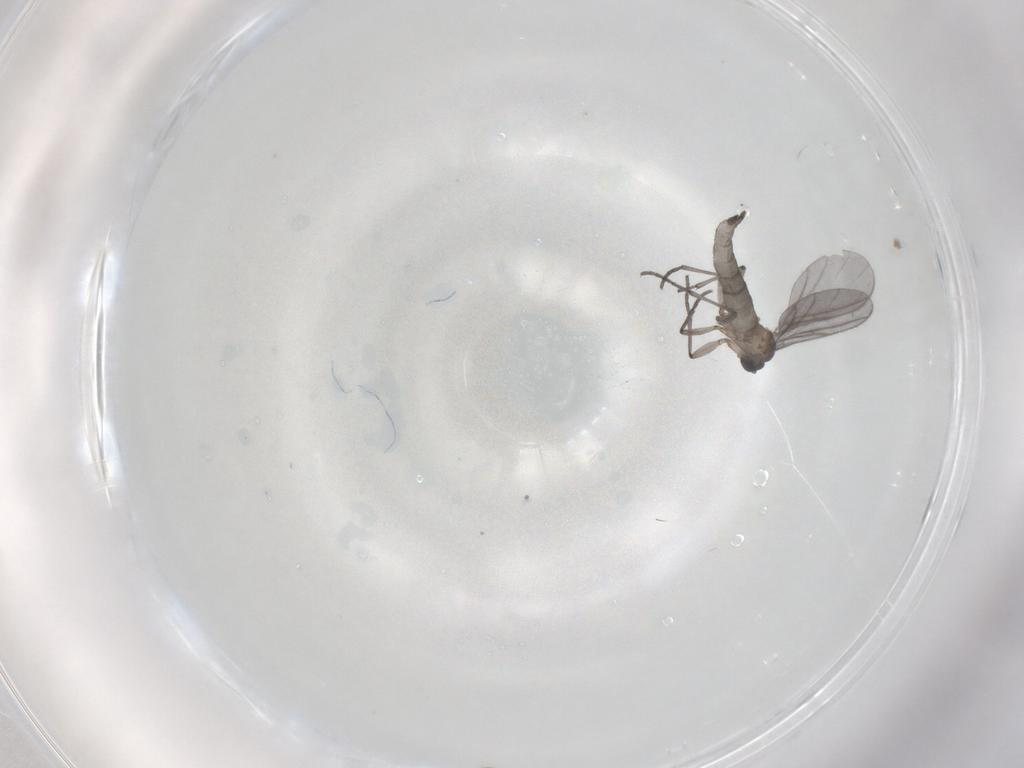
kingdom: Animalia
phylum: Arthropoda
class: Insecta
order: Diptera
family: Sciaridae
